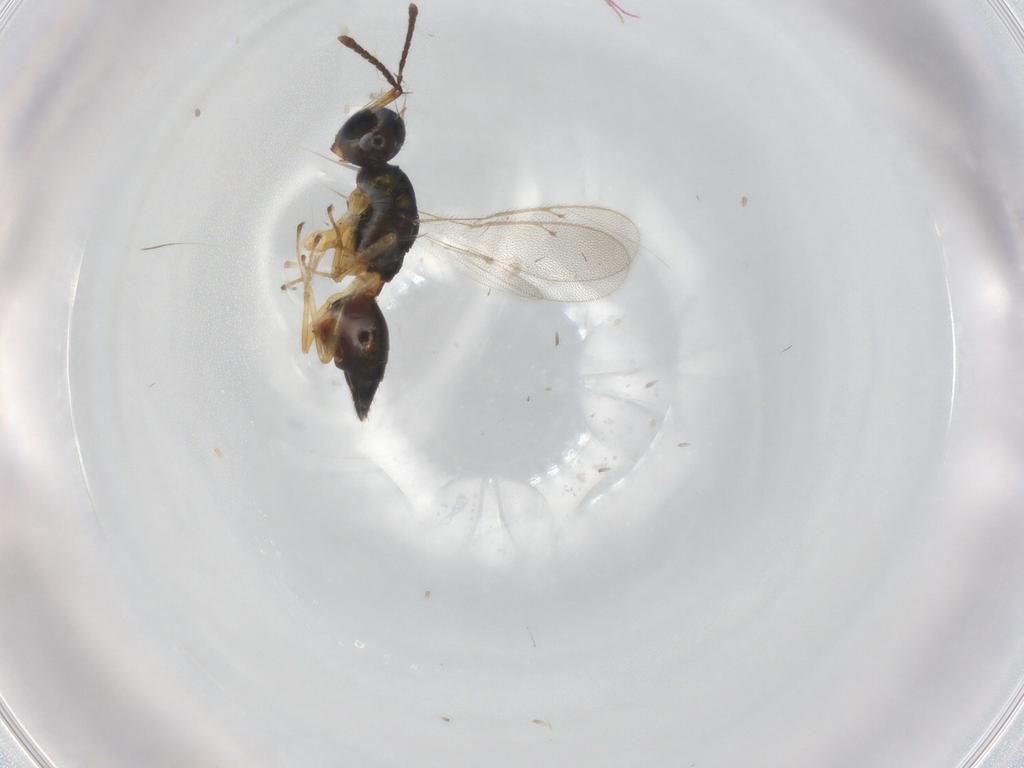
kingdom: Animalia
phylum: Arthropoda
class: Insecta
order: Hymenoptera
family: Pteromalidae
